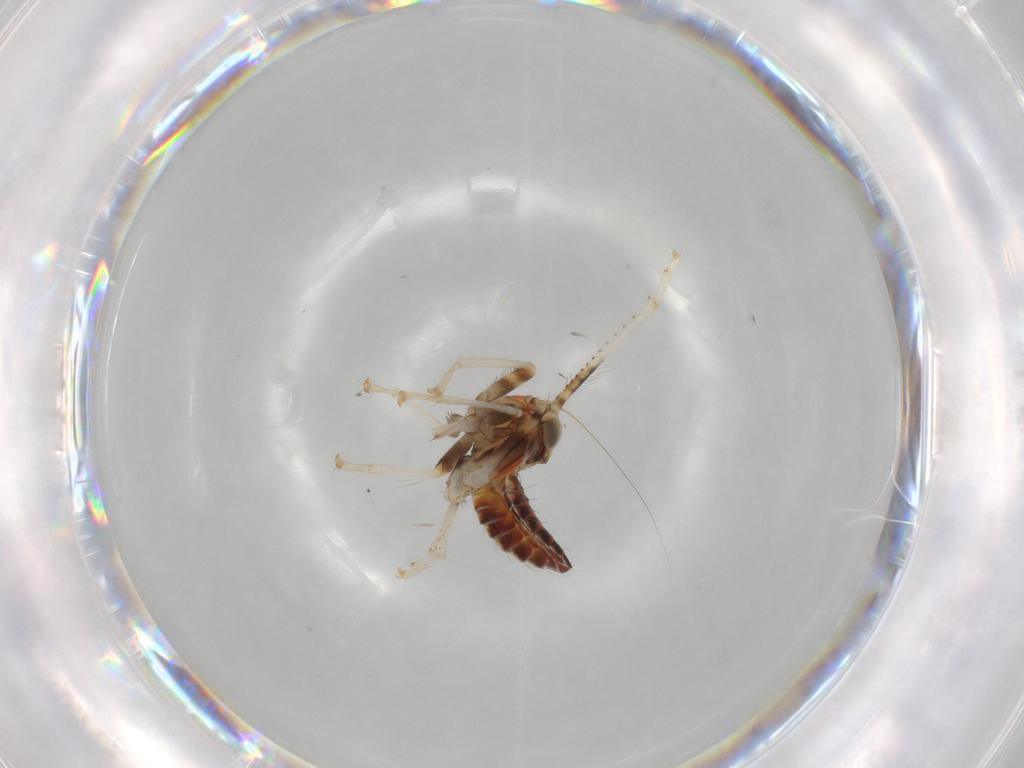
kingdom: Animalia
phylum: Arthropoda
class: Insecta
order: Hemiptera
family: Cicadellidae
